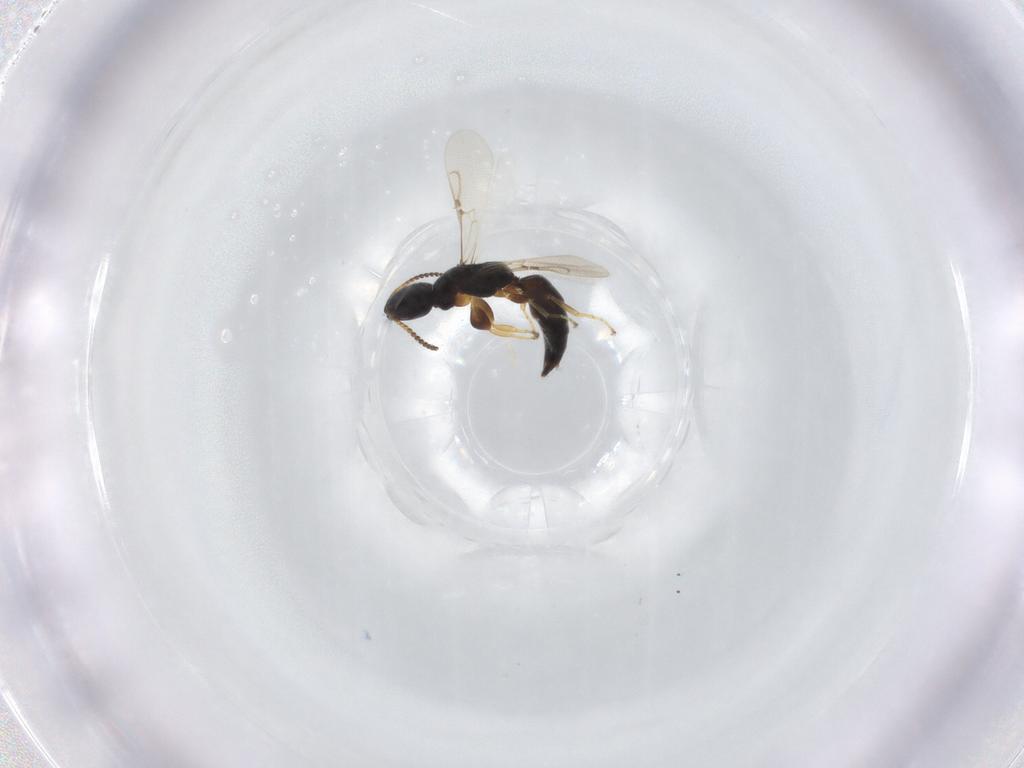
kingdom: Animalia
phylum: Arthropoda
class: Insecta
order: Hymenoptera
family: Bethylidae
